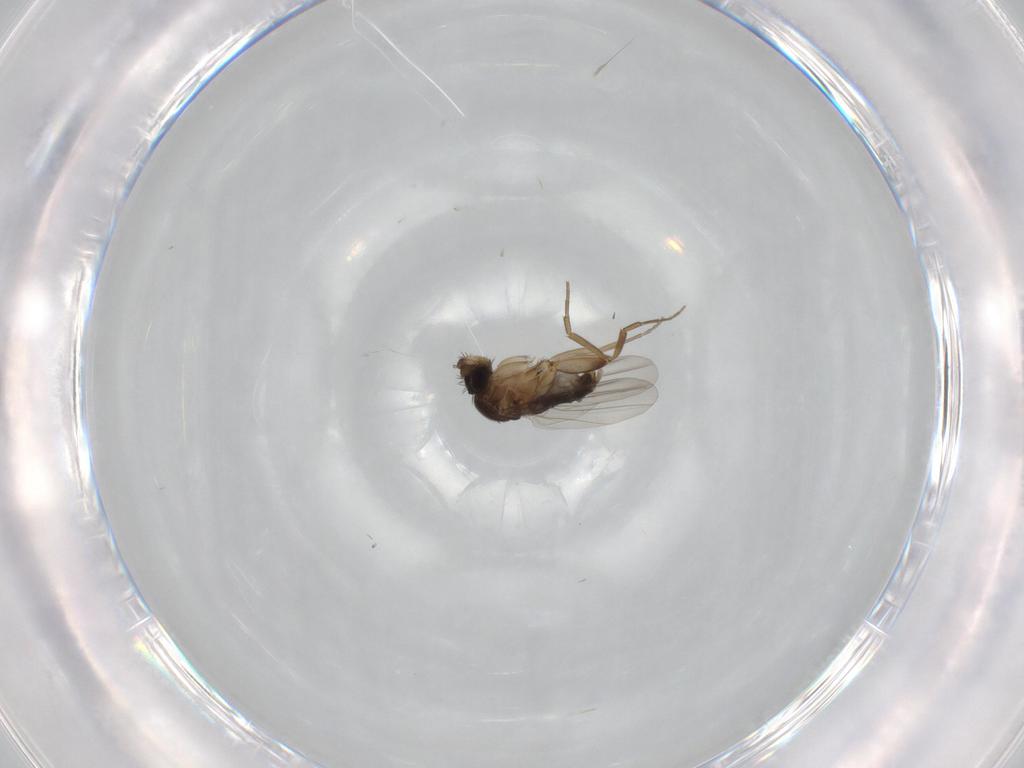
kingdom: Animalia
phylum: Arthropoda
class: Insecta
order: Diptera
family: Phoridae
